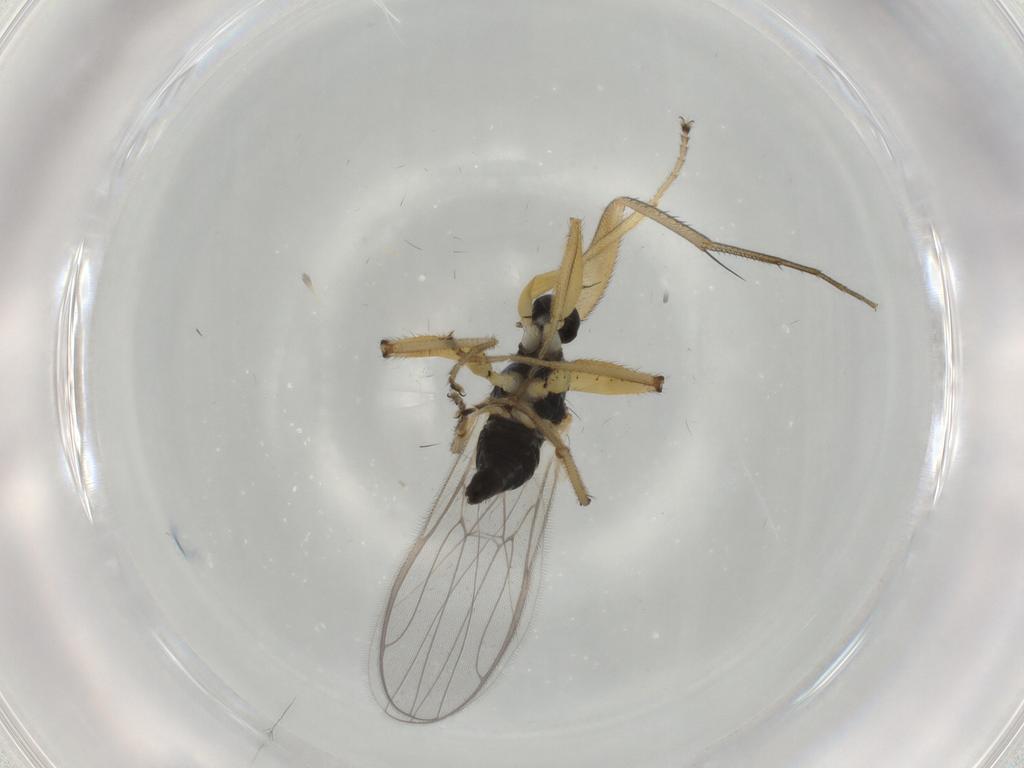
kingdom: Animalia
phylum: Arthropoda
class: Insecta
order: Diptera
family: Hybotidae
